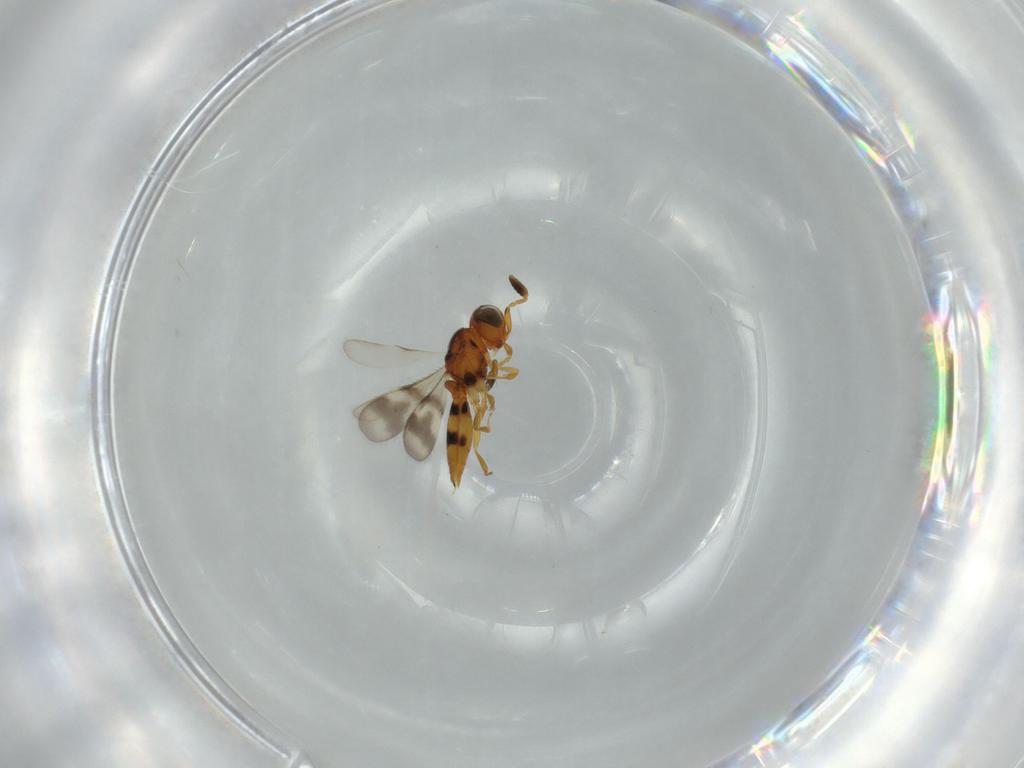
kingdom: Animalia
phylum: Arthropoda
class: Insecta
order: Hymenoptera
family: Scelionidae
